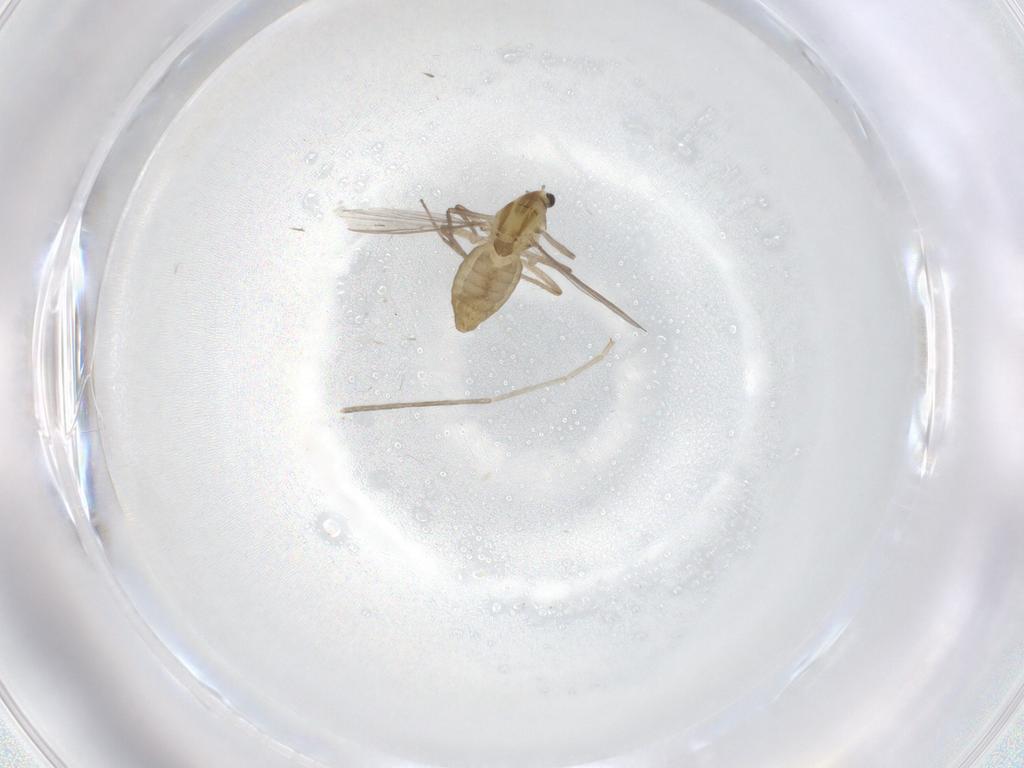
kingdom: Animalia
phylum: Arthropoda
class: Insecta
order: Diptera
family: Chironomidae
